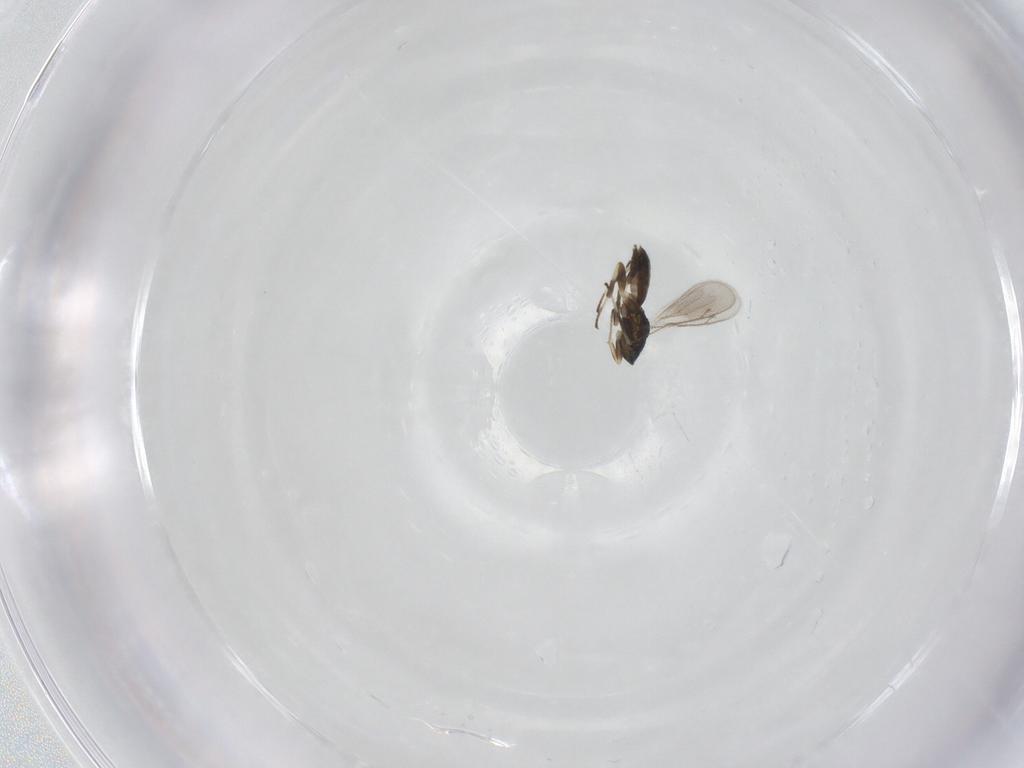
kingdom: Animalia
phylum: Arthropoda
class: Insecta
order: Hymenoptera
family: Eupelmidae
